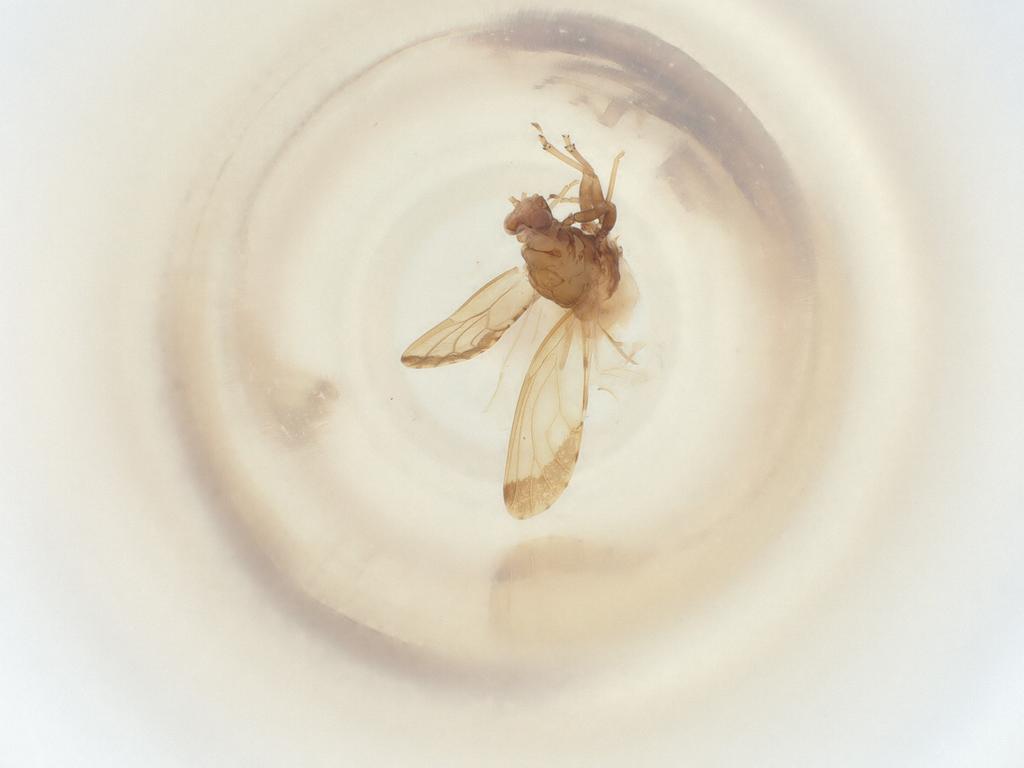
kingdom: Animalia
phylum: Arthropoda
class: Insecta
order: Hemiptera
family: Psyllidae
